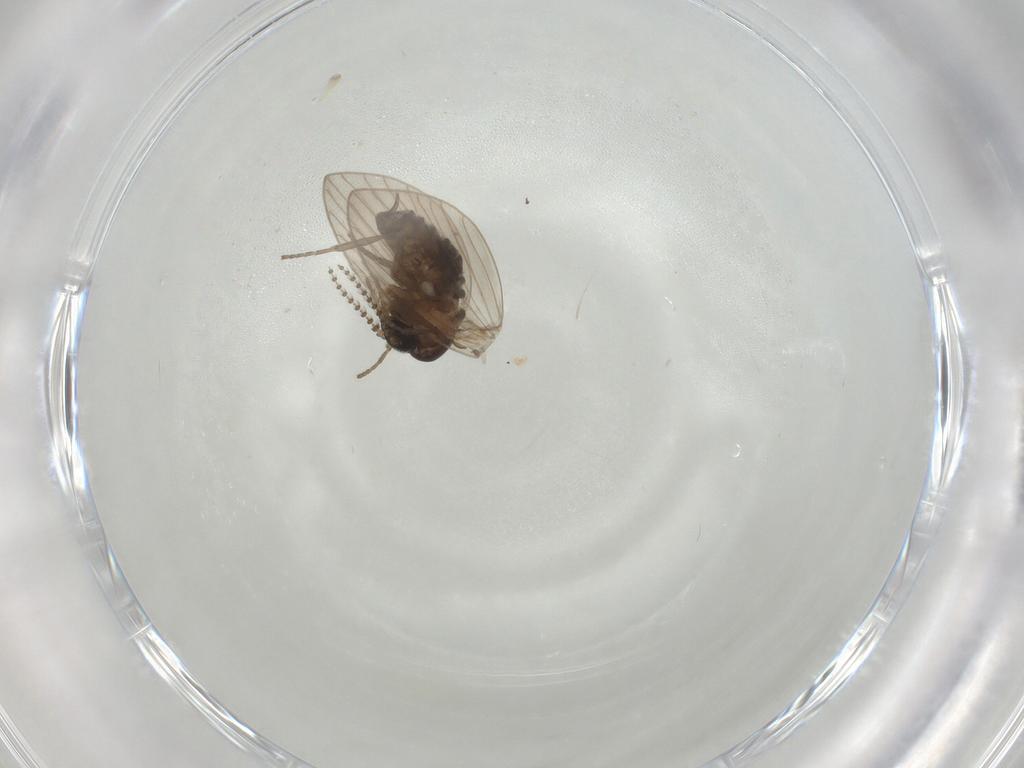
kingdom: Animalia
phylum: Arthropoda
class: Insecta
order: Diptera
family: Psychodidae
